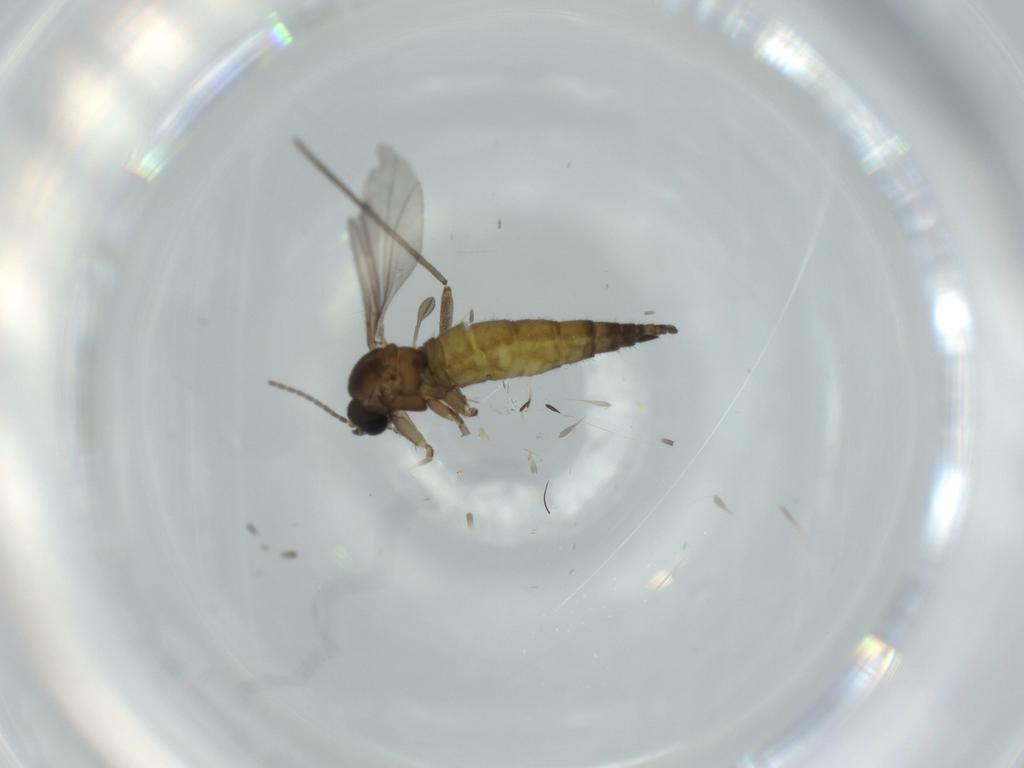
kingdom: Animalia
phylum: Arthropoda
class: Insecta
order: Diptera
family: Sciaridae
